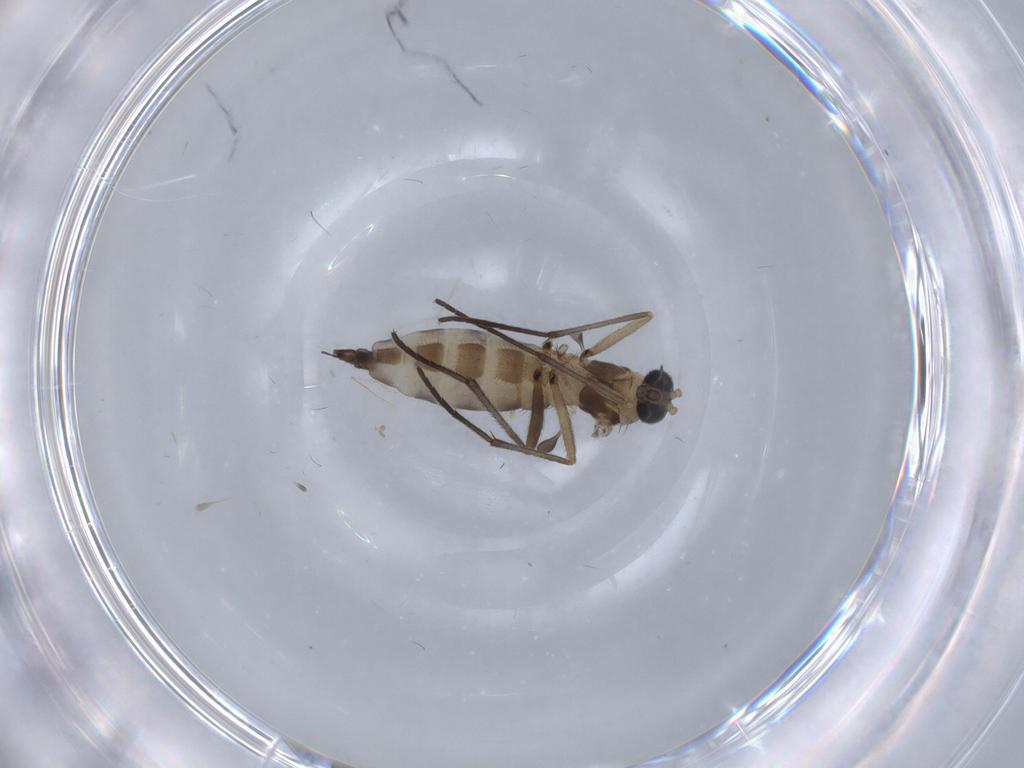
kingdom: Animalia
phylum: Arthropoda
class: Insecta
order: Diptera
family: Sciaridae
